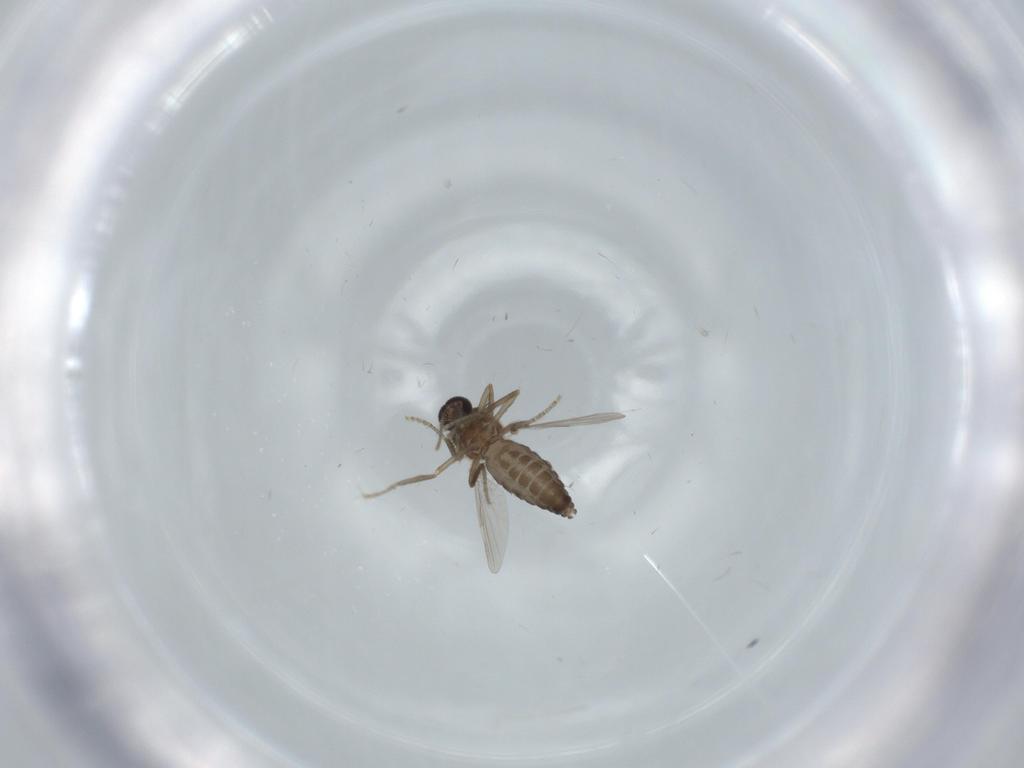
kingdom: Animalia
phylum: Arthropoda
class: Insecta
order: Diptera
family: Ceratopogonidae
